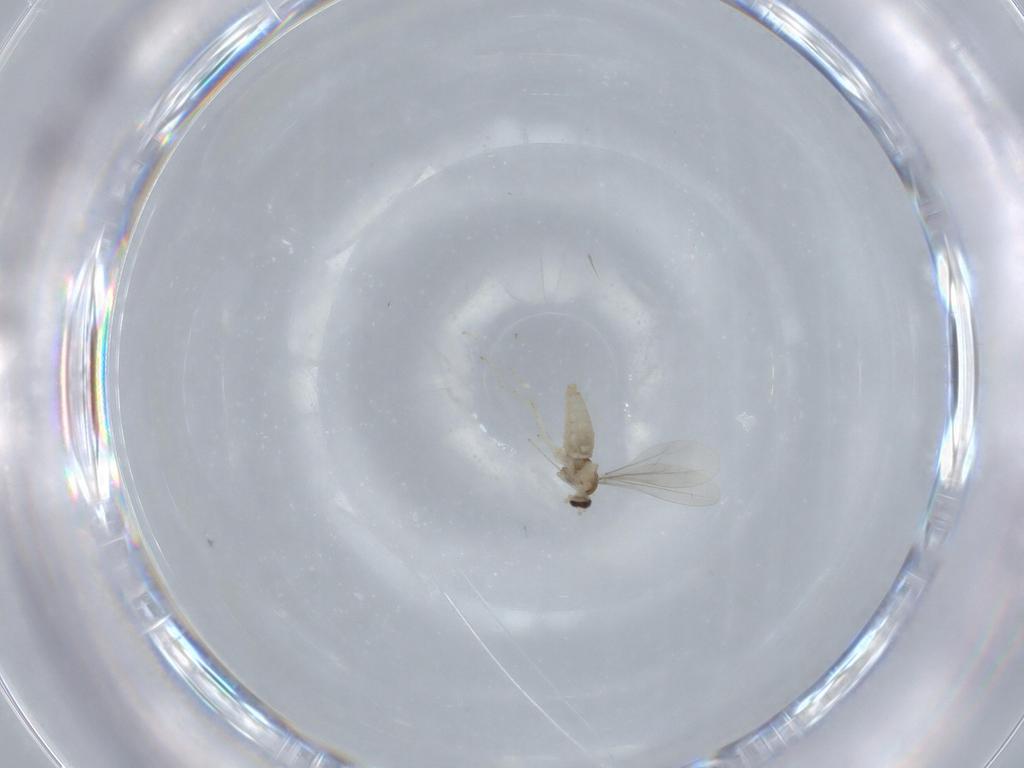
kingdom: Animalia
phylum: Arthropoda
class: Insecta
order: Diptera
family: Cecidomyiidae
